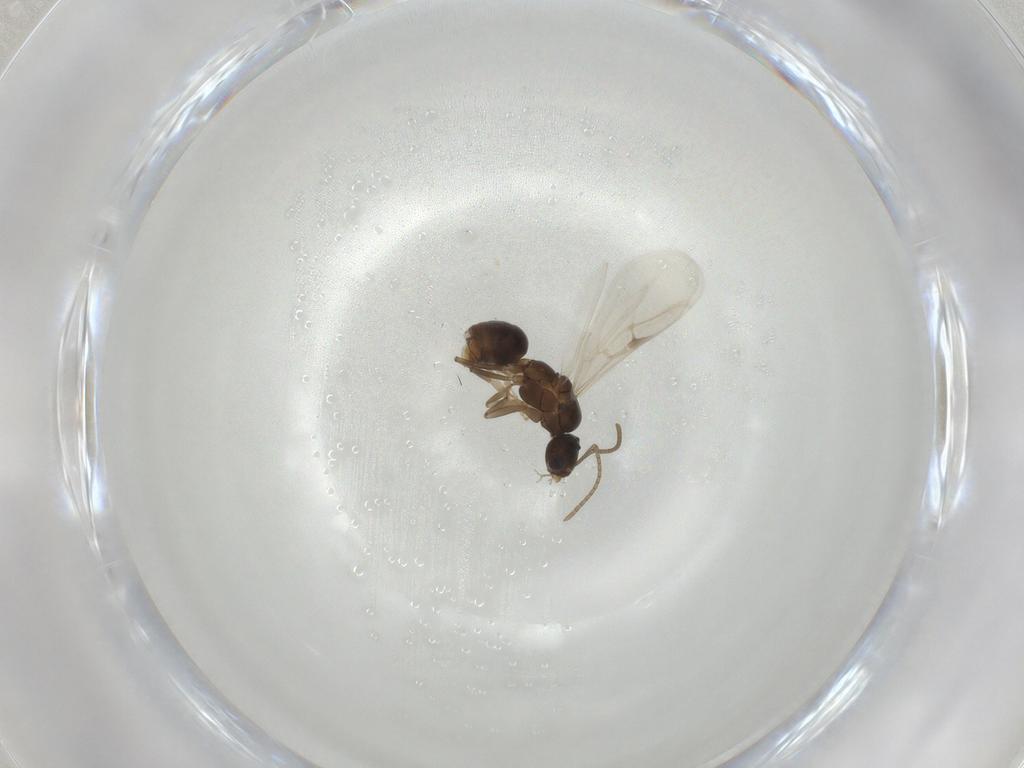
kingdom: Animalia
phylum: Arthropoda
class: Insecta
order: Hymenoptera
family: Formicidae
